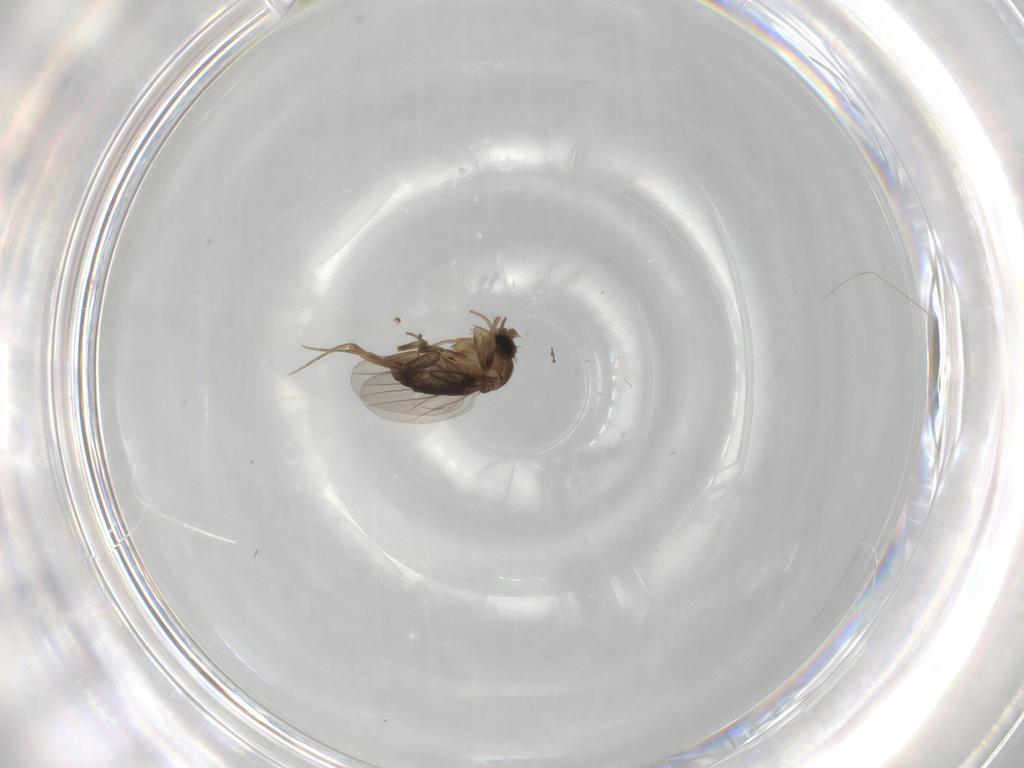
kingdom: Animalia
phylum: Arthropoda
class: Insecta
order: Diptera
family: Phoridae
